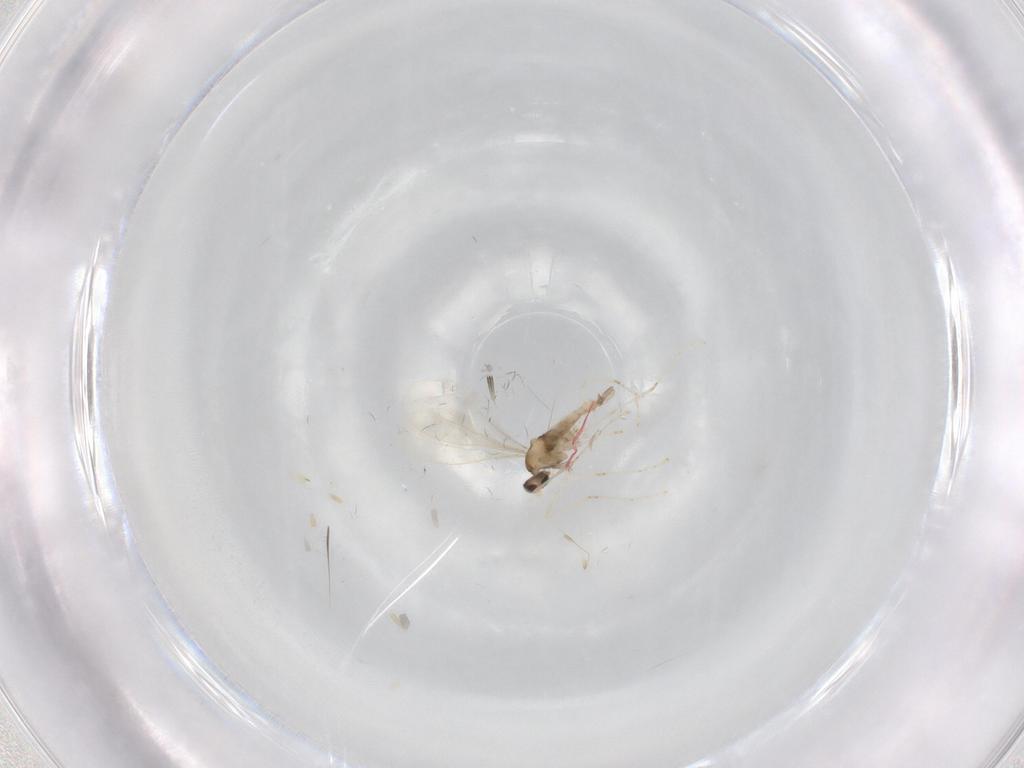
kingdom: Animalia
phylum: Arthropoda
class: Insecta
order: Diptera
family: Cecidomyiidae
